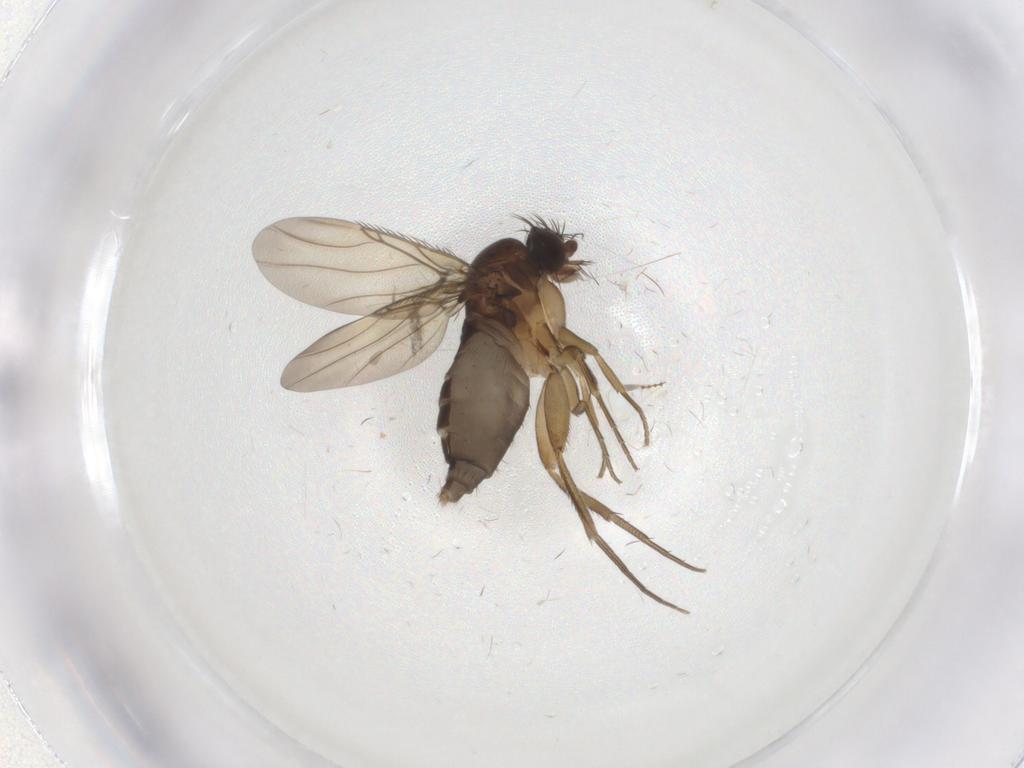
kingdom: Animalia
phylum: Arthropoda
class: Insecta
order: Diptera
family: Phoridae
